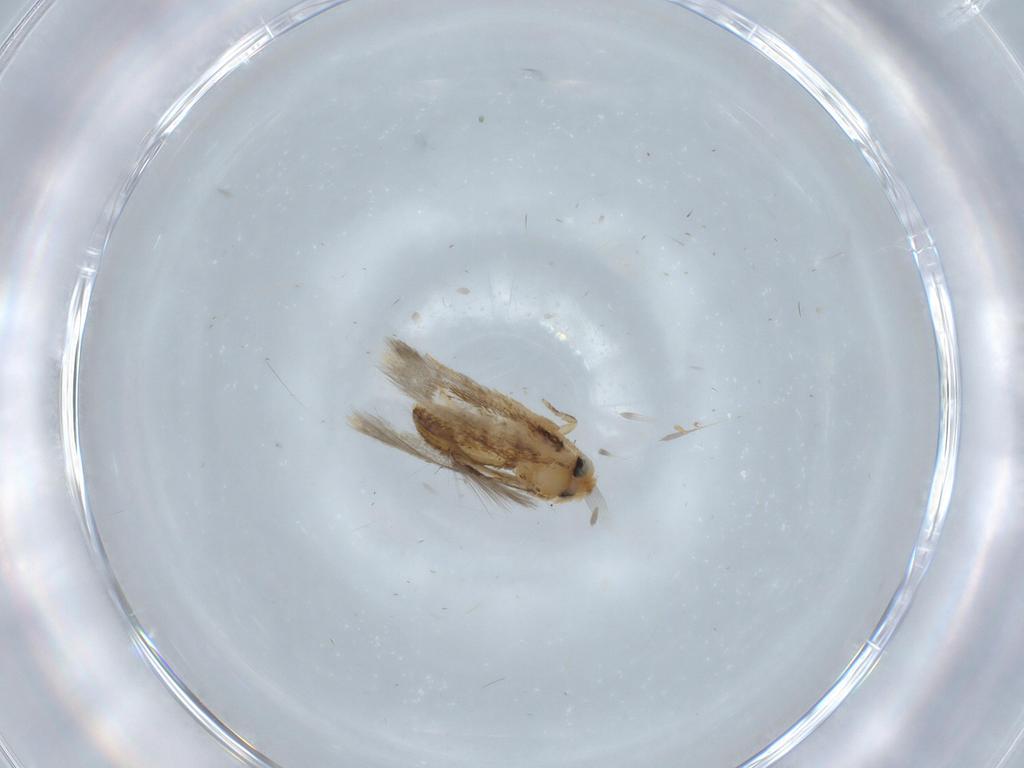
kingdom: Animalia
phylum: Arthropoda
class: Insecta
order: Lepidoptera
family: Nepticulidae
